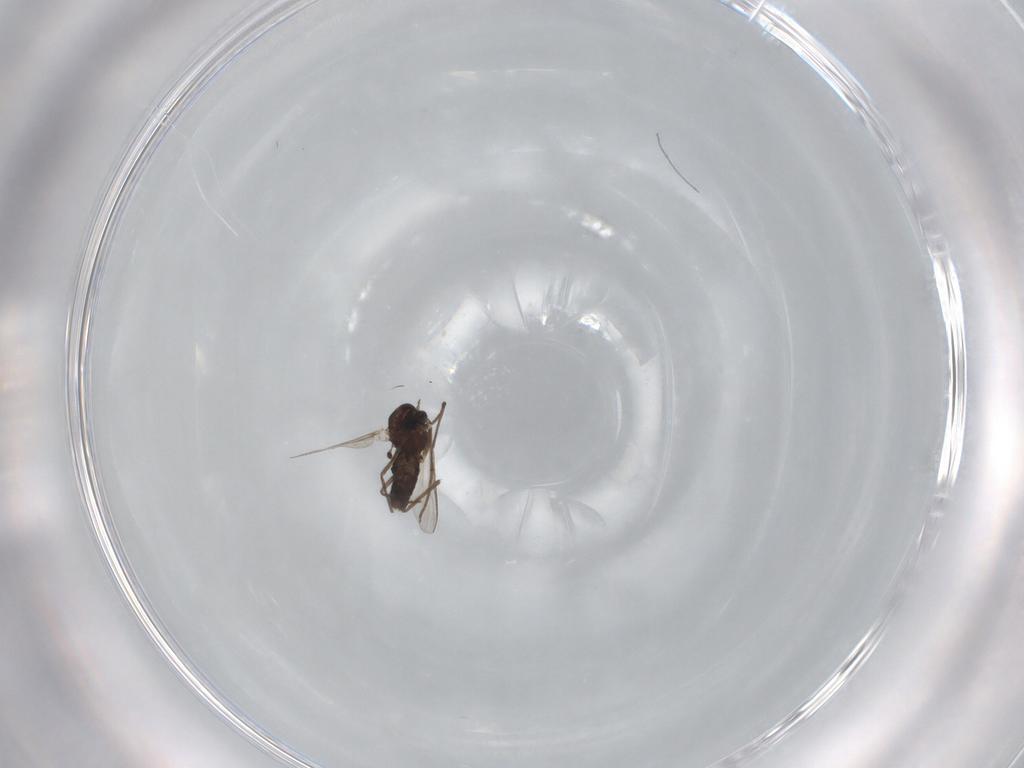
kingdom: Animalia
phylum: Arthropoda
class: Insecta
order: Diptera
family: Chironomidae
